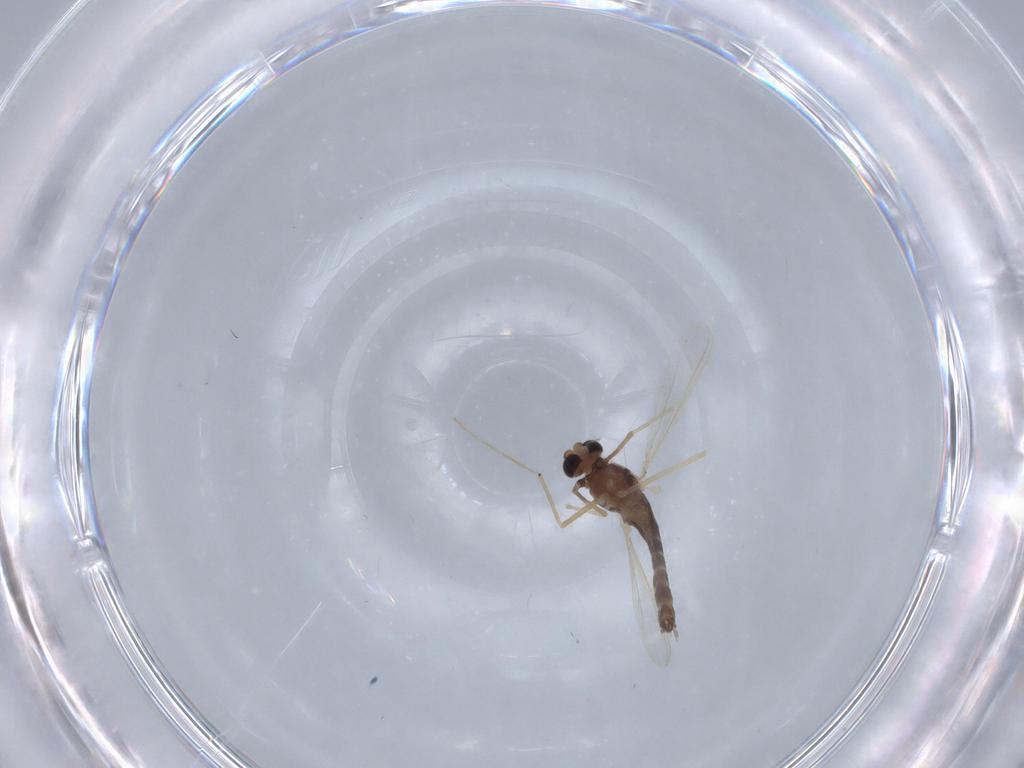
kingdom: Animalia
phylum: Arthropoda
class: Insecta
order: Diptera
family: Chironomidae
